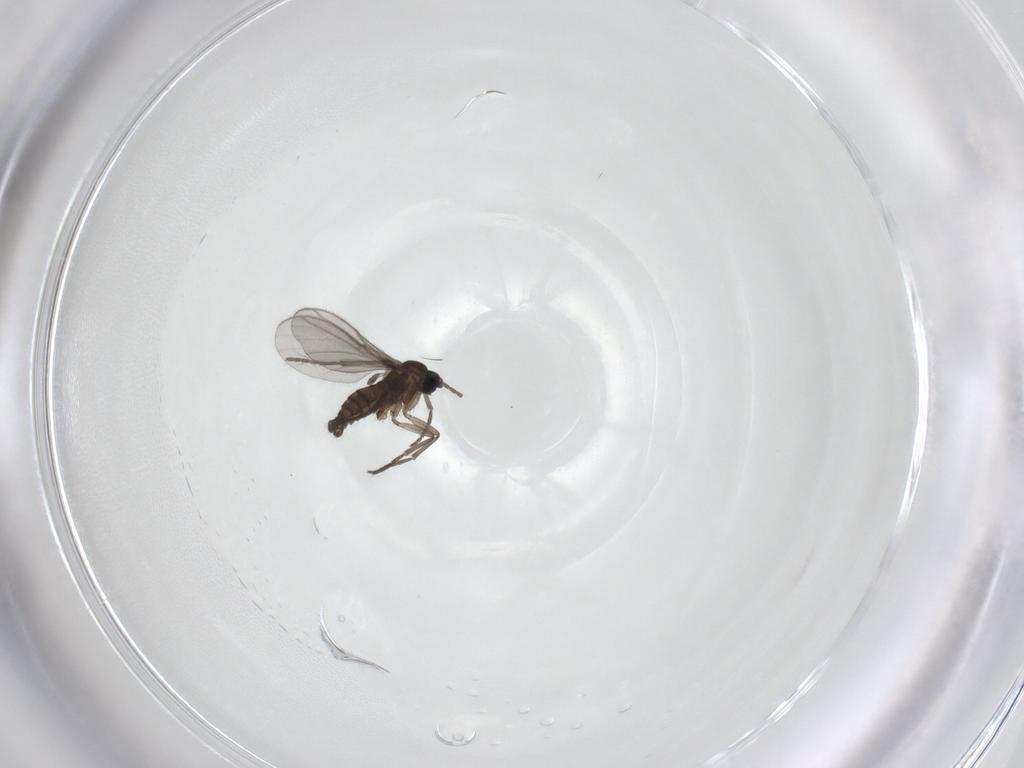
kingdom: Animalia
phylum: Arthropoda
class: Insecta
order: Diptera
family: Sciaridae
